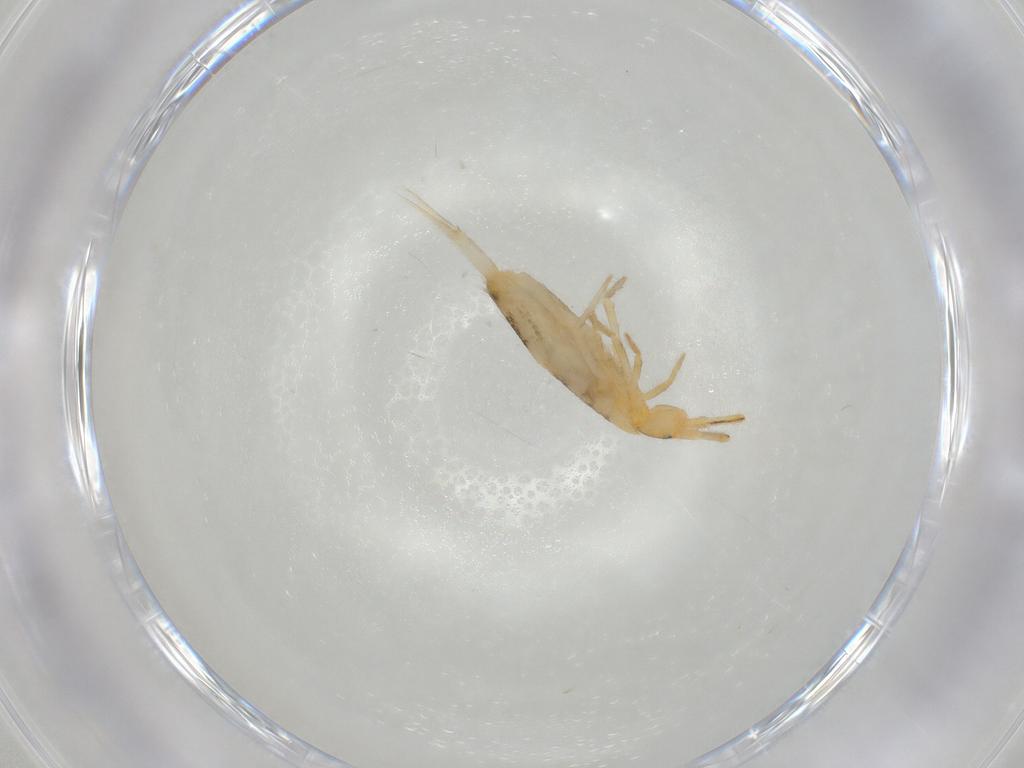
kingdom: Animalia
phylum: Arthropoda
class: Collembola
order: Entomobryomorpha
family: Entomobryidae
